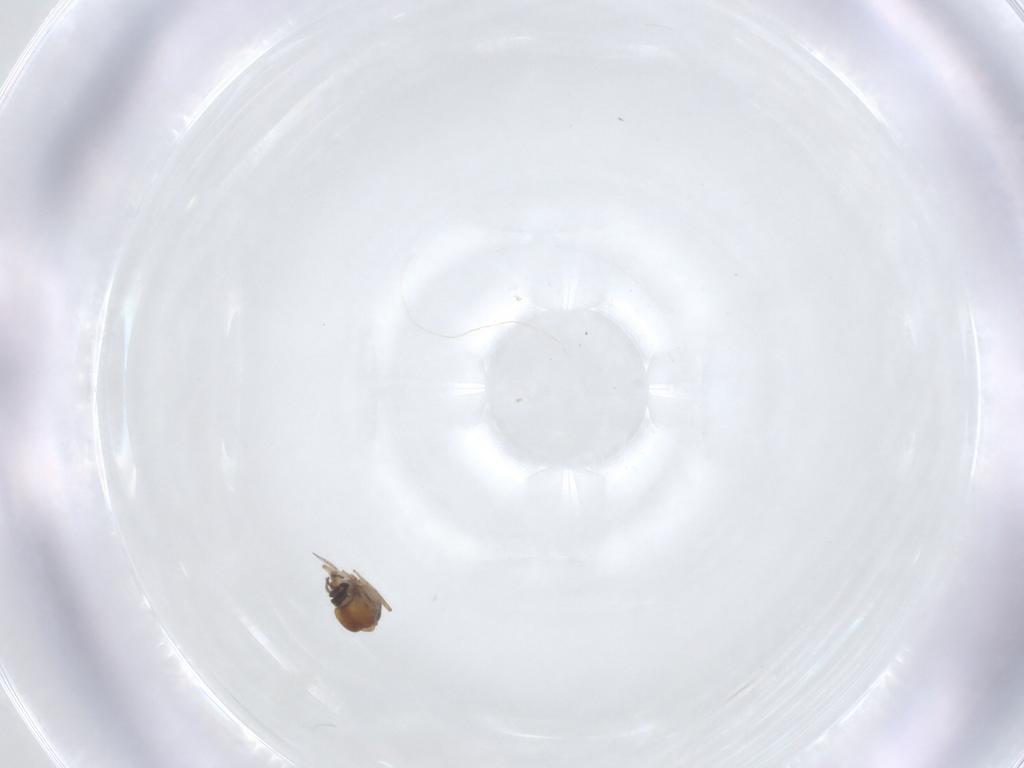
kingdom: Animalia
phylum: Arthropoda
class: Insecta
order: Diptera
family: Ceratopogonidae
